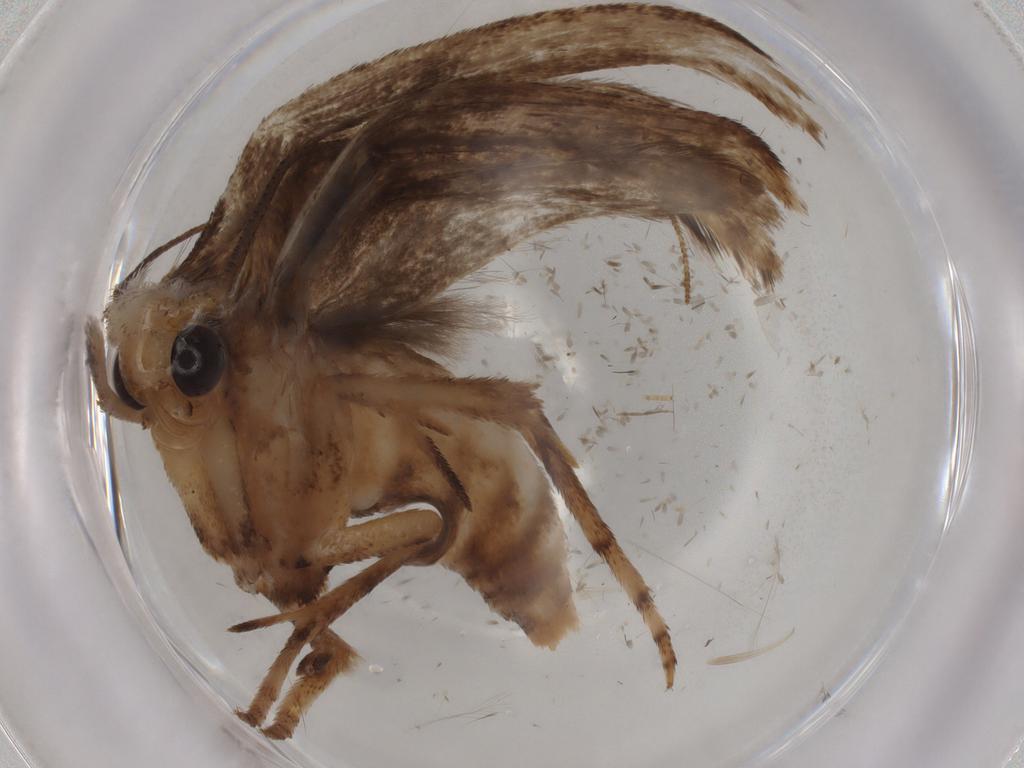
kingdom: Animalia
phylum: Arthropoda
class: Insecta
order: Lepidoptera
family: Yponomeutidae
